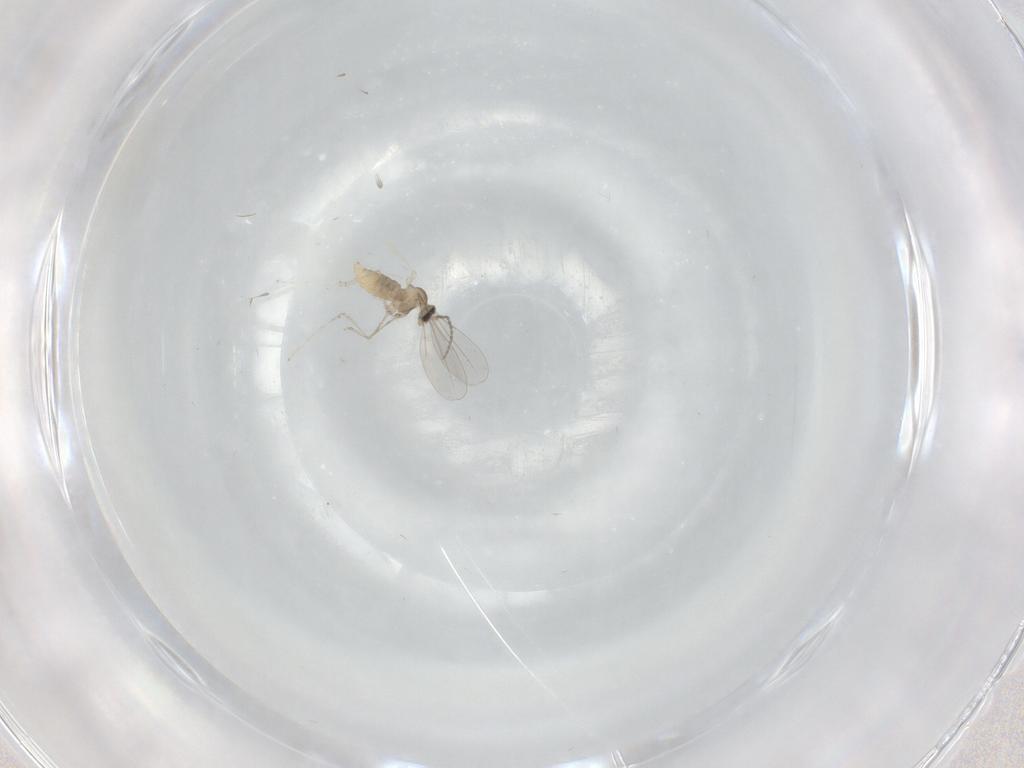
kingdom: Animalia
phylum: Arthropoda
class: Insecta
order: Diptera
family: Cecidomyiidae
